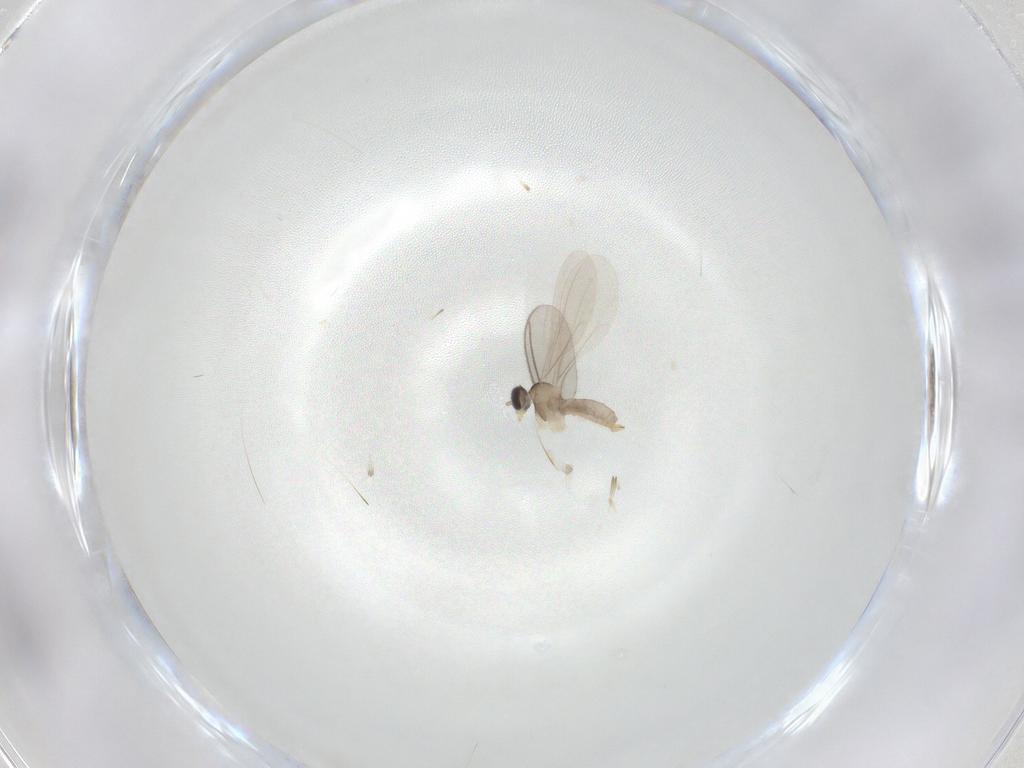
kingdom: Animalia
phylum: Arthropoda
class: Insecta
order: Diptera
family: Cecidomyiidae
